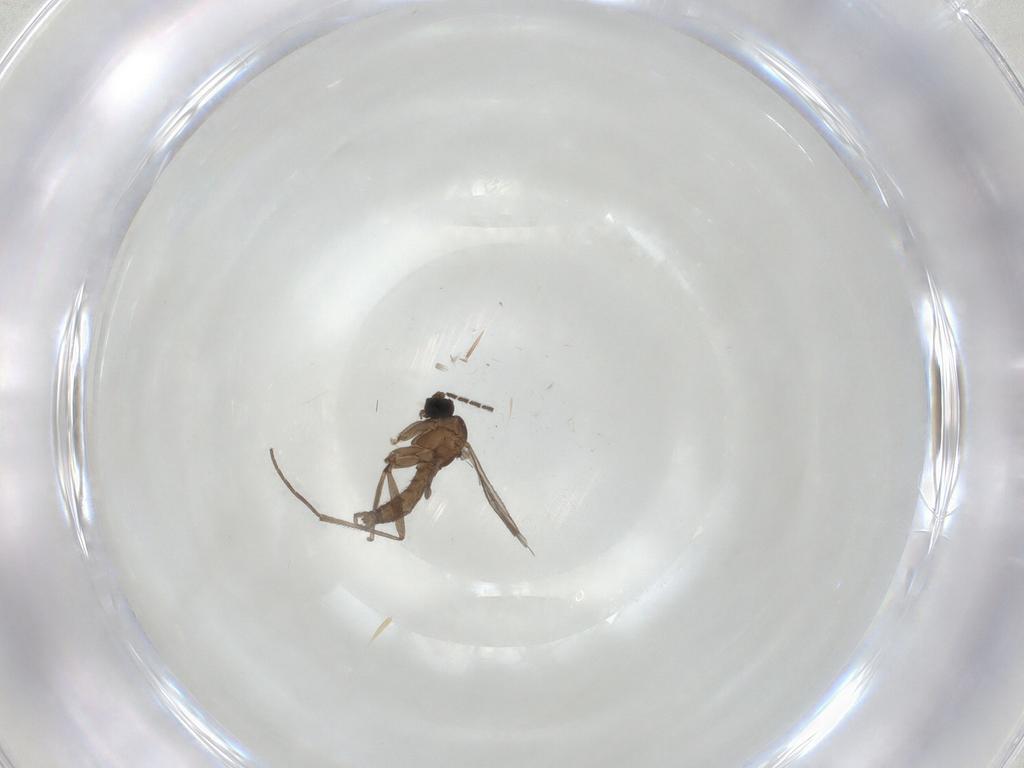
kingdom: Animalia
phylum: Arthropoda
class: Insecta
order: Diptera
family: Sciaridae
